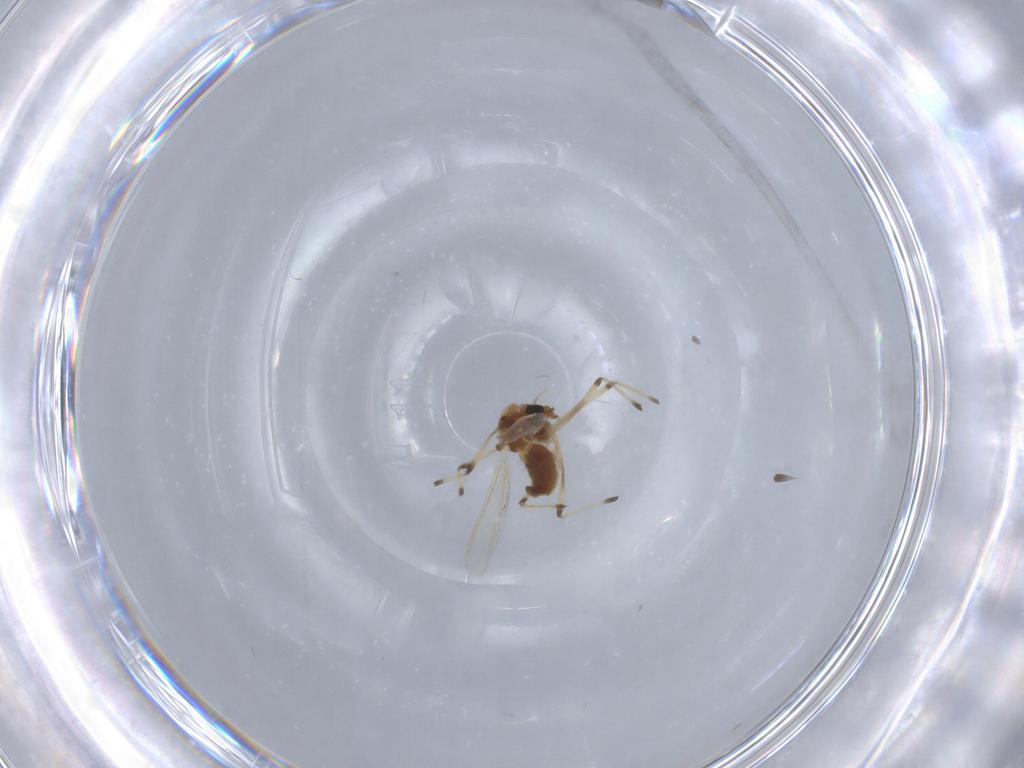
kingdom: Animalia
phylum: Arthropoda
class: Insecta
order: Diptera
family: Chironomidae
